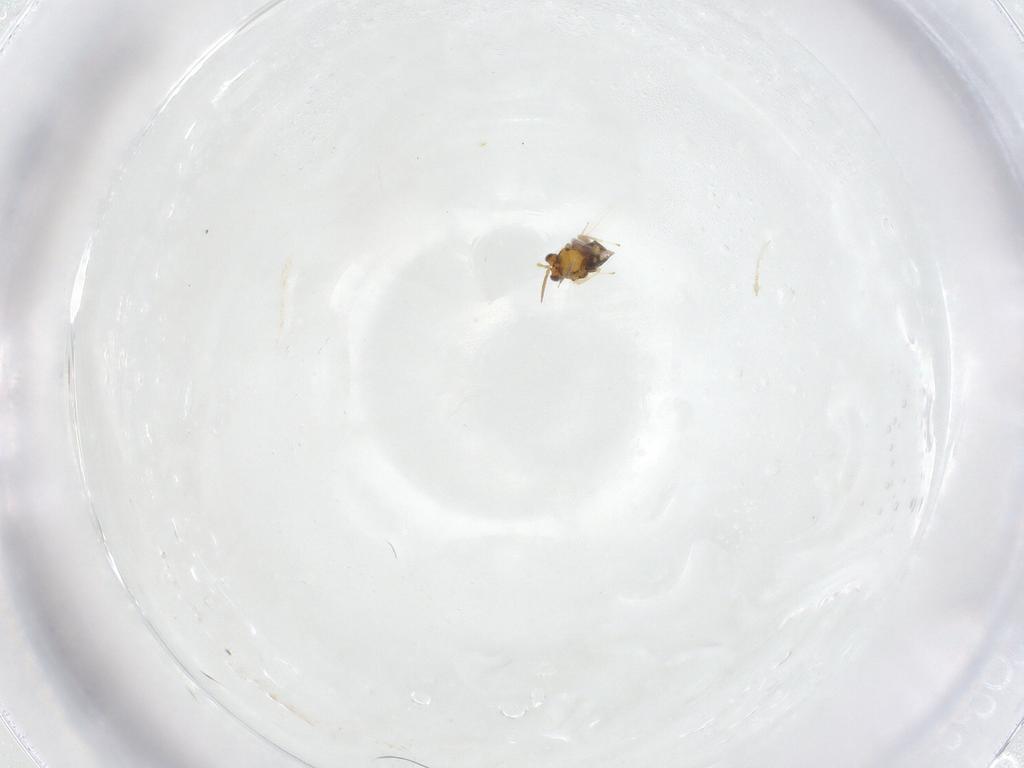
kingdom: Animalia
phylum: Arthropoda
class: Insecta
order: Hymenoptera
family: Aphelinidae
